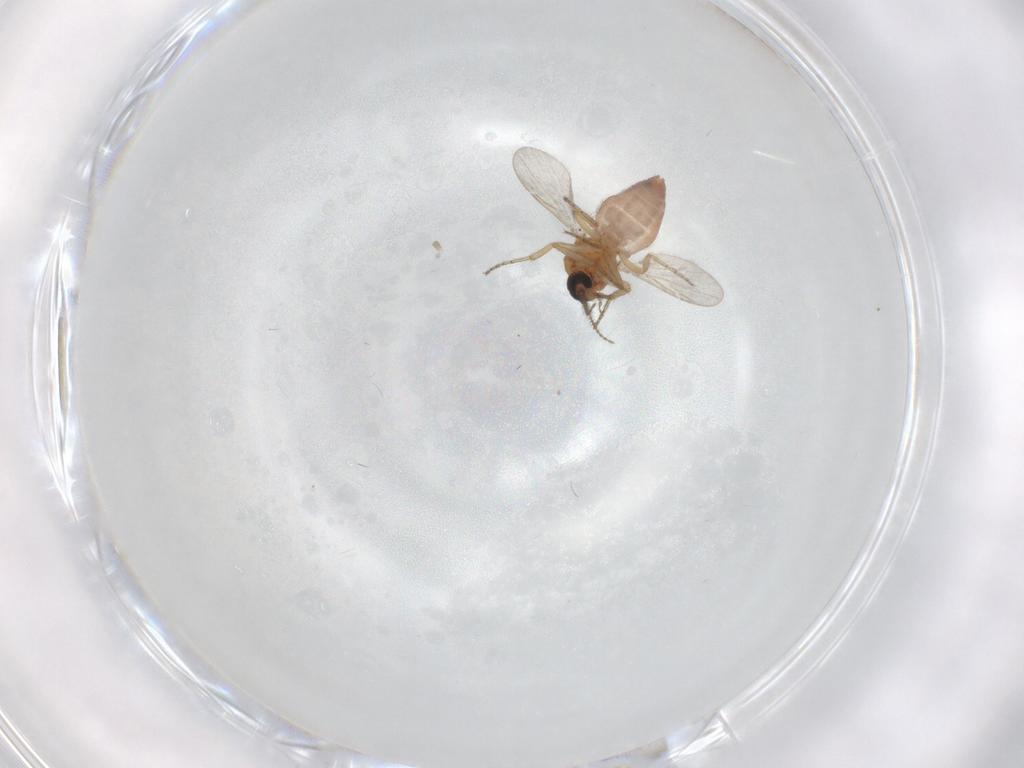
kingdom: Animalia
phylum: Arthropoda
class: Insecta
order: Diptera
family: Ceratopogonidae
